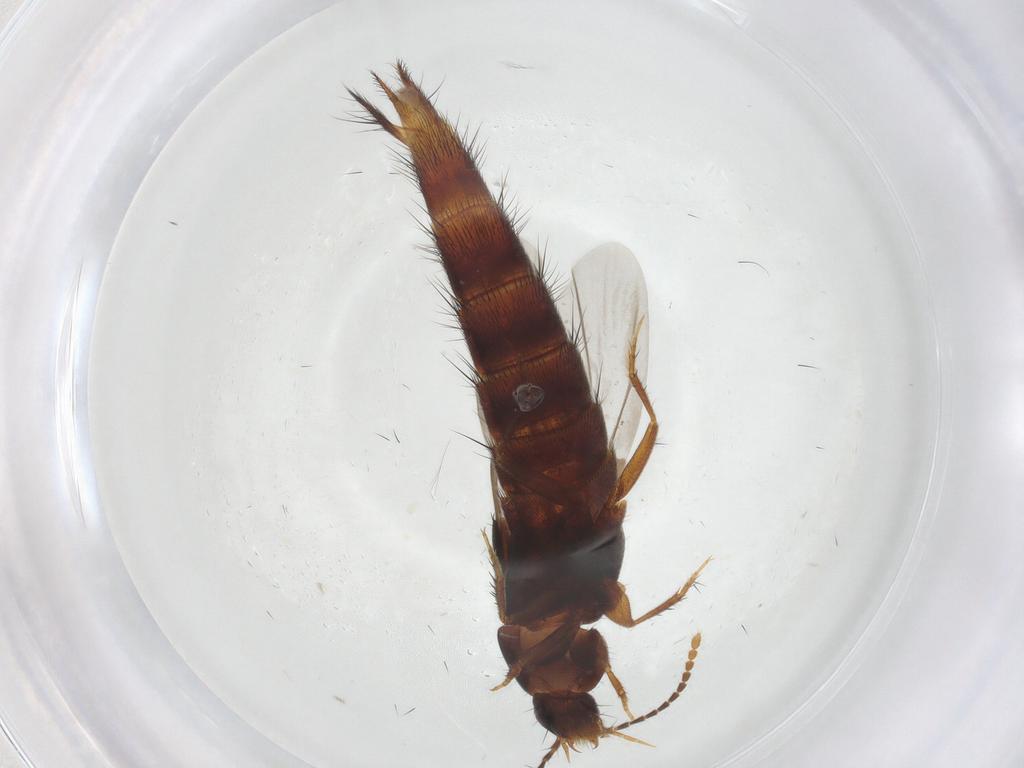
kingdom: Animalia
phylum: Arthropoda
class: Insecta
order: Coleoptera
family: Staphylinidae
